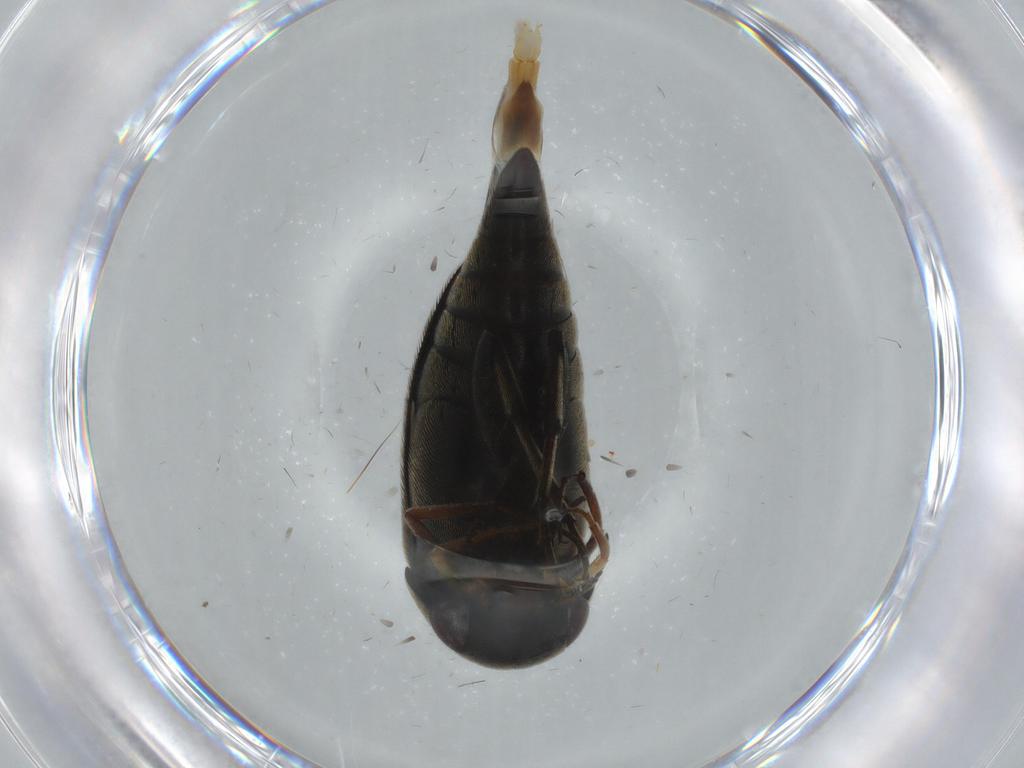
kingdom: Animalia
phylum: Arthropoda
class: Insecta
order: Coleoptera
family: Mordellidae
